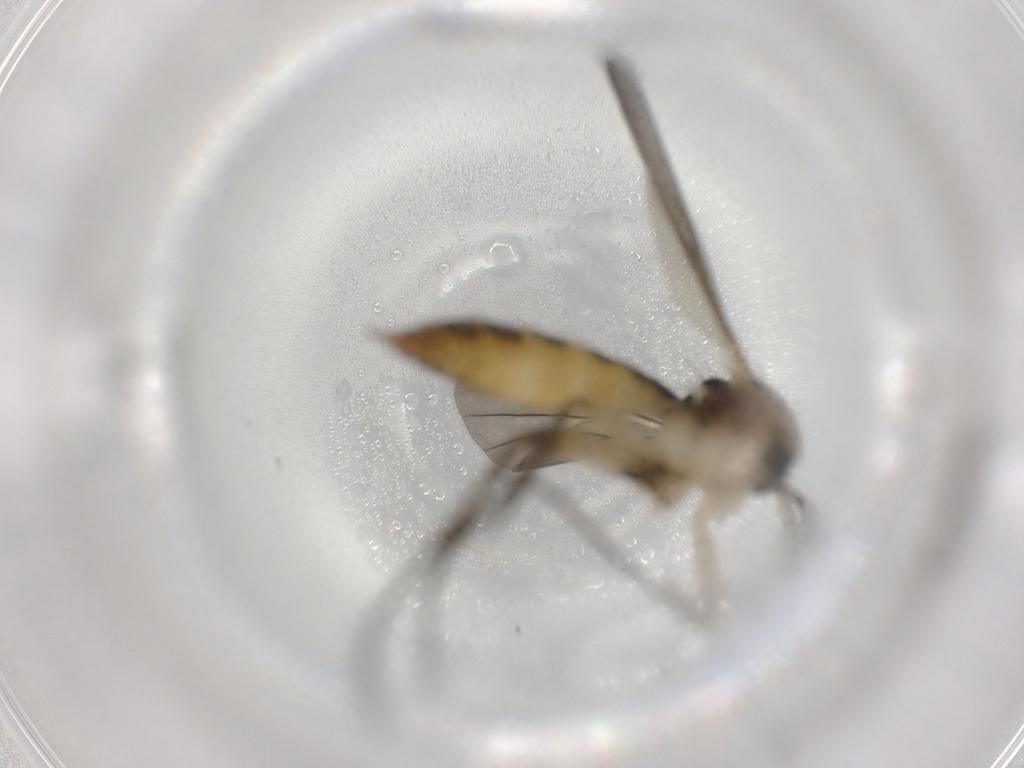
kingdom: Animalia
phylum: Arthropoda
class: Insecta
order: Diptera
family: Mycetophilidae
